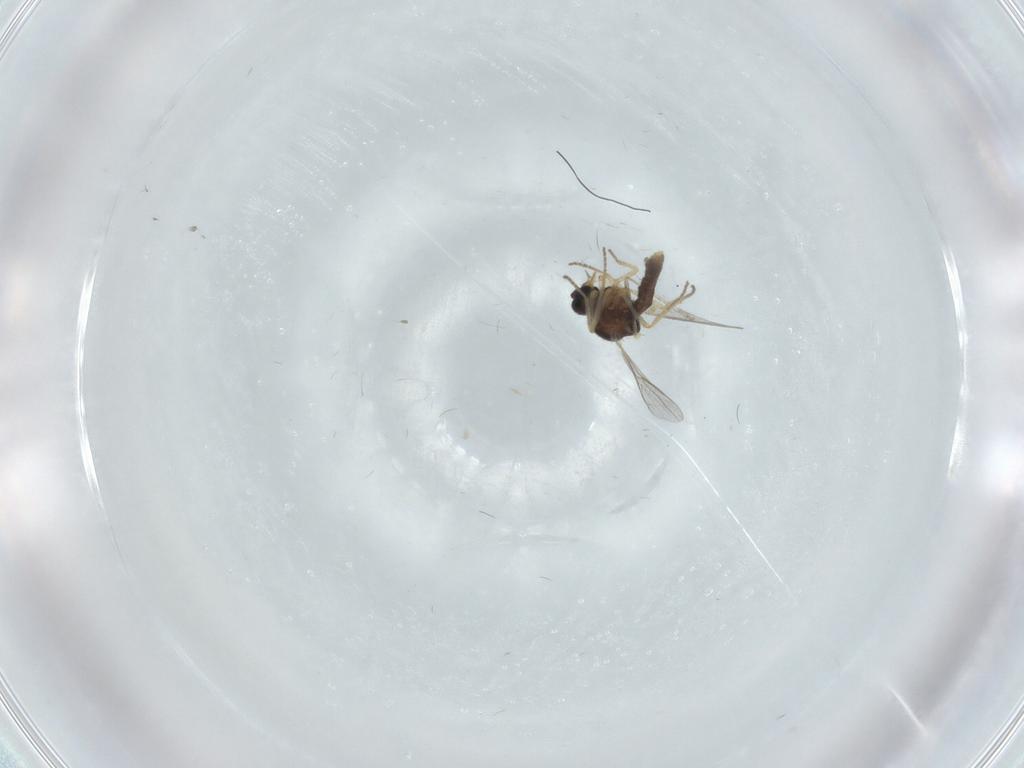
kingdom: Animalia
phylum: Arthropoda
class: Insecta
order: Diptera
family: Ceratopogonidae
